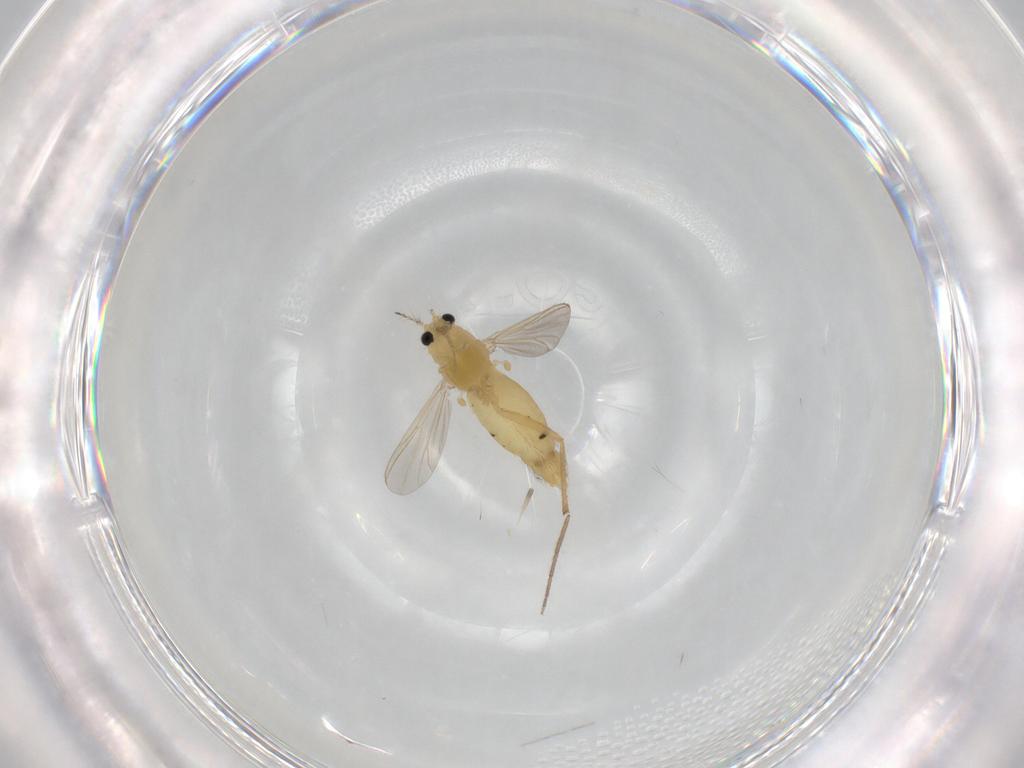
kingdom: Animalia
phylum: Arthropoda
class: Insecta
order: Diptera
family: Chironomidae
